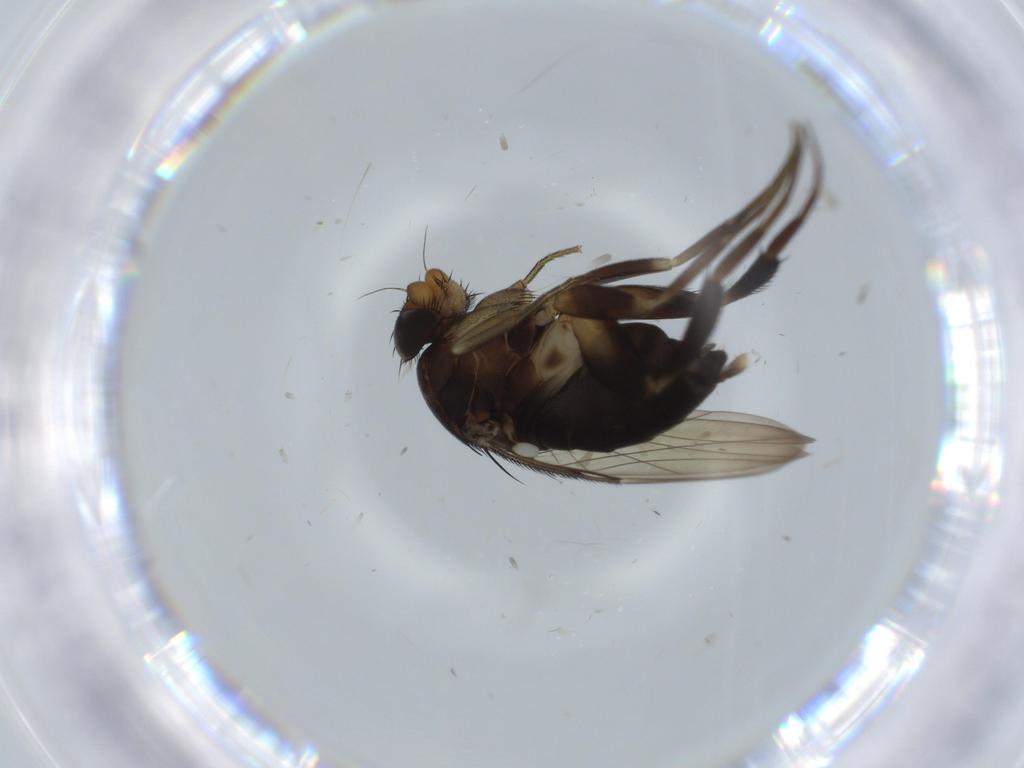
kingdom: Animalia
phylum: Arthropoda
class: Insecta
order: Diptera
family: Phoridae
